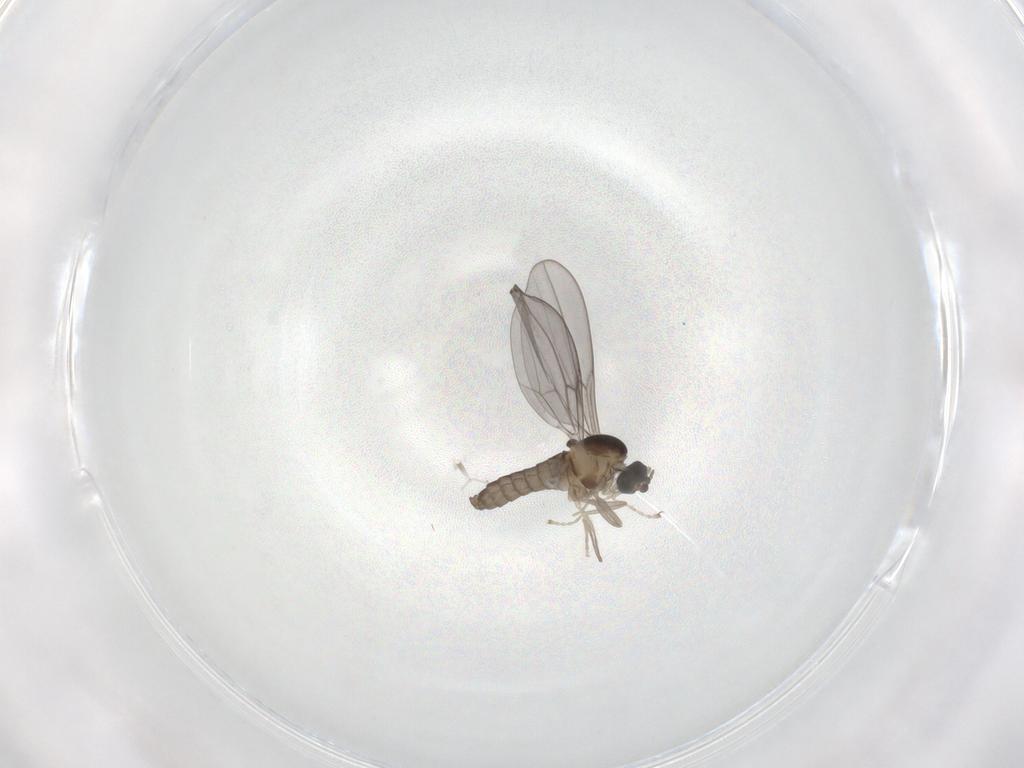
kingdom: Animalia
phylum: Arthropoda
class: Insecta
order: Diptera
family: Cecidomyiidae
